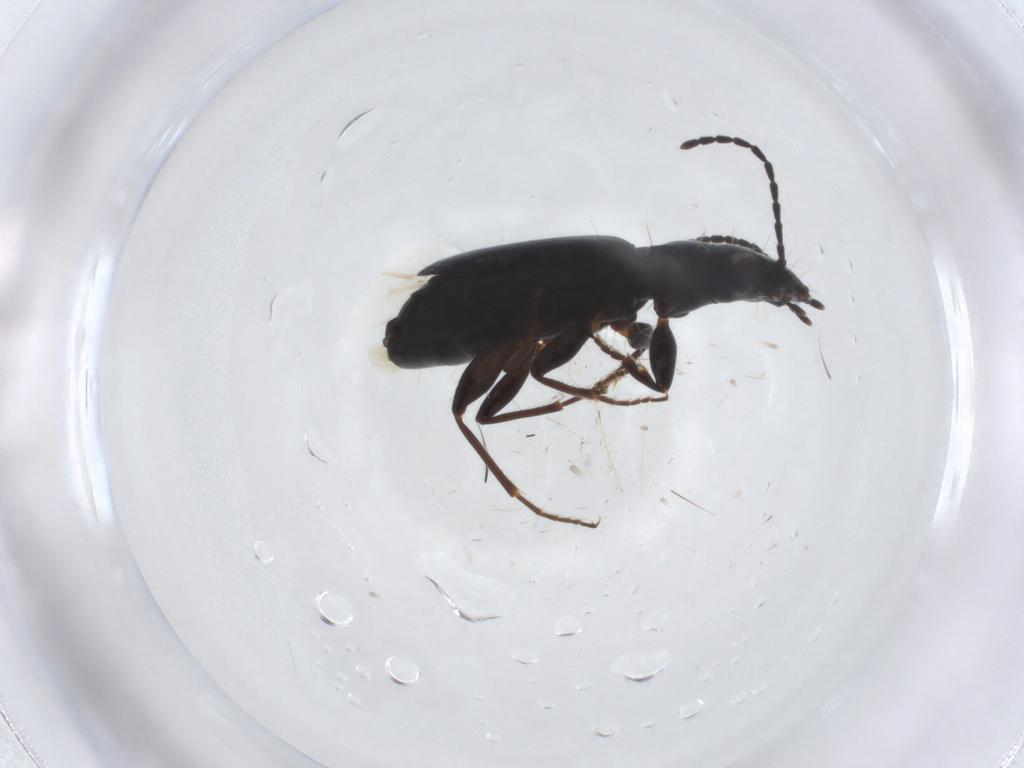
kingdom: Animalia
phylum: Arthropoda
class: Insecta
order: Coleoptera
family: Carabidae
